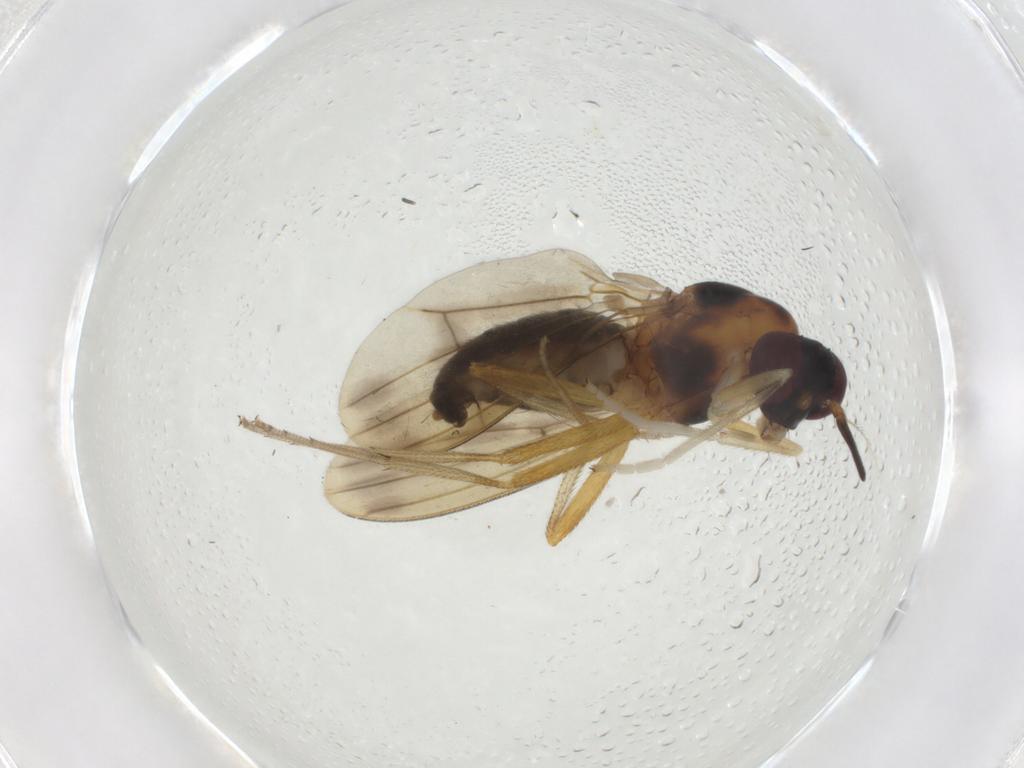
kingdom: Animalia
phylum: Arthropoda
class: Insecta
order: Diptera
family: Lauxaniidae
